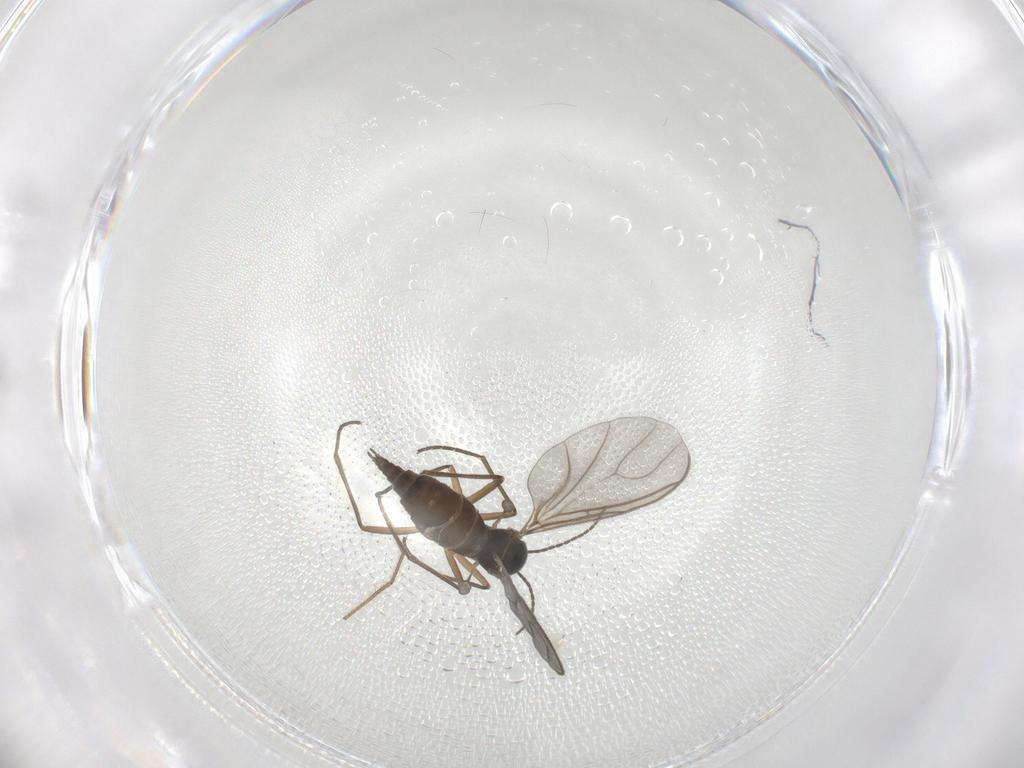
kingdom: Animalia
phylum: Arthropoda
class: Insecta
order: Diptera
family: Sciaridae
